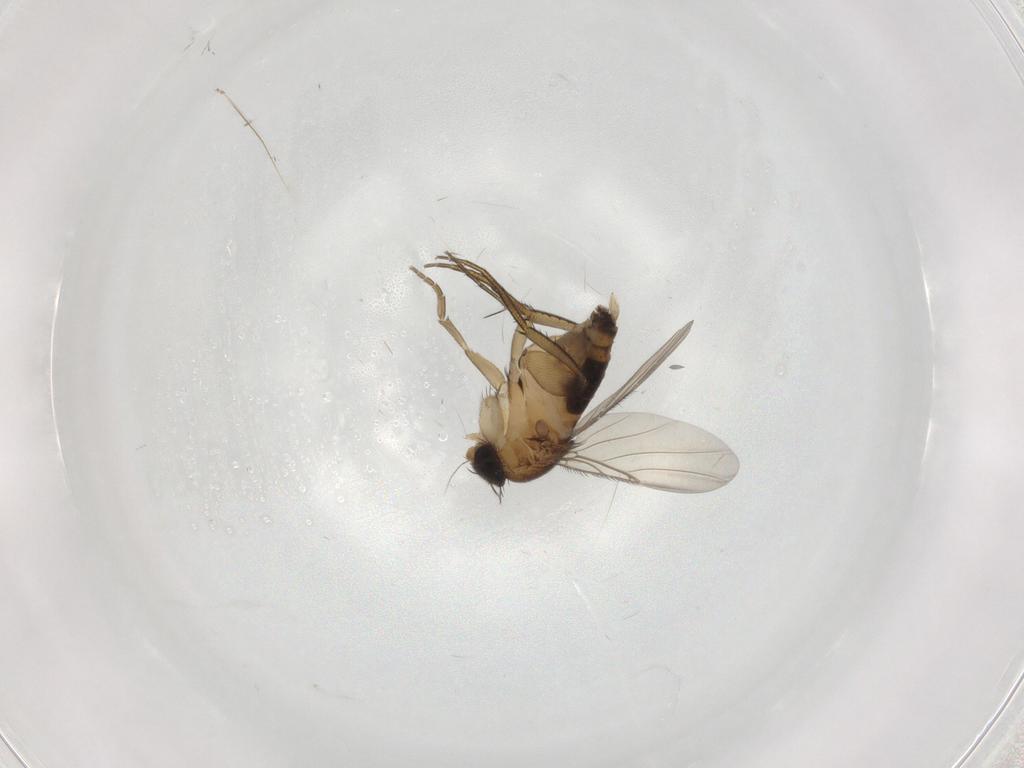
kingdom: Animalia
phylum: Arthropoda
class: Insecta
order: Diptera
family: Phoridae
